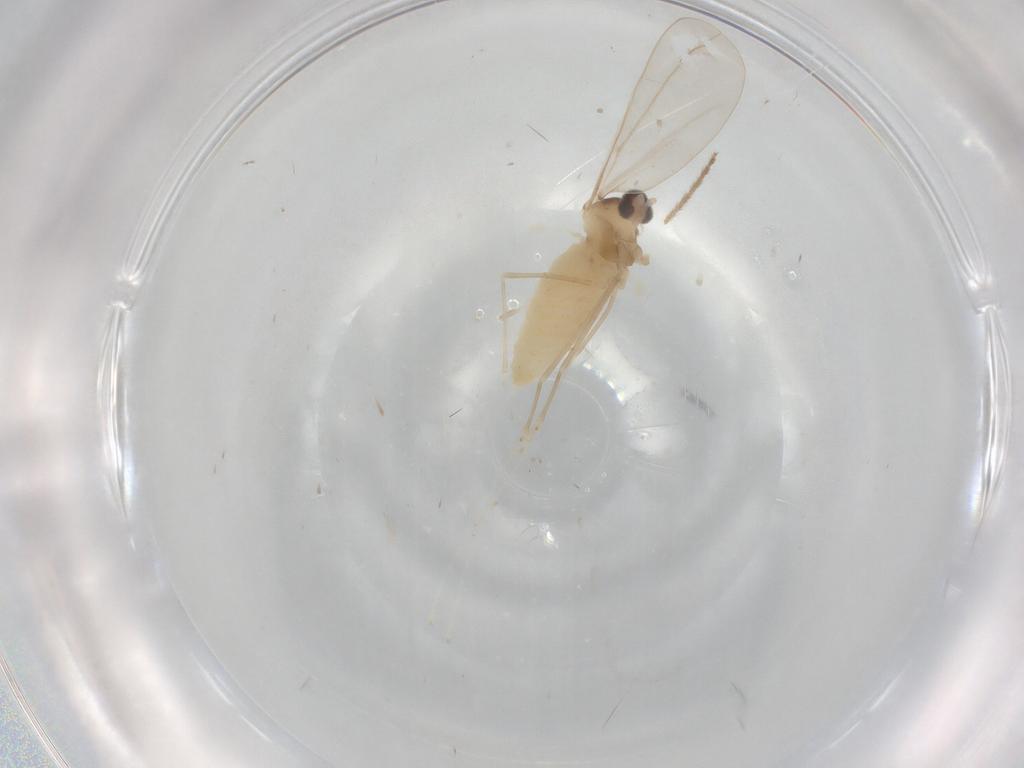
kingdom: Animalia
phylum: Arthropoda
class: Insecta
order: Diptera
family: Cecidomyiidae
